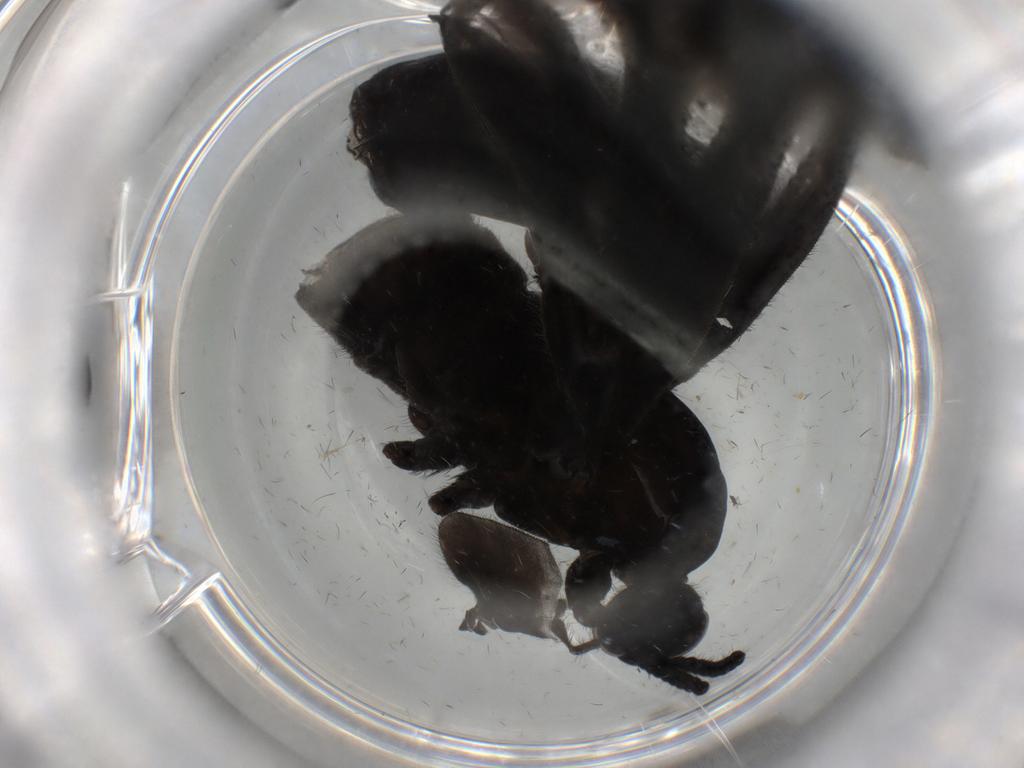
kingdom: Animalia
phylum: Arthropoda
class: Insecta
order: Diptera
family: Bibionidae
